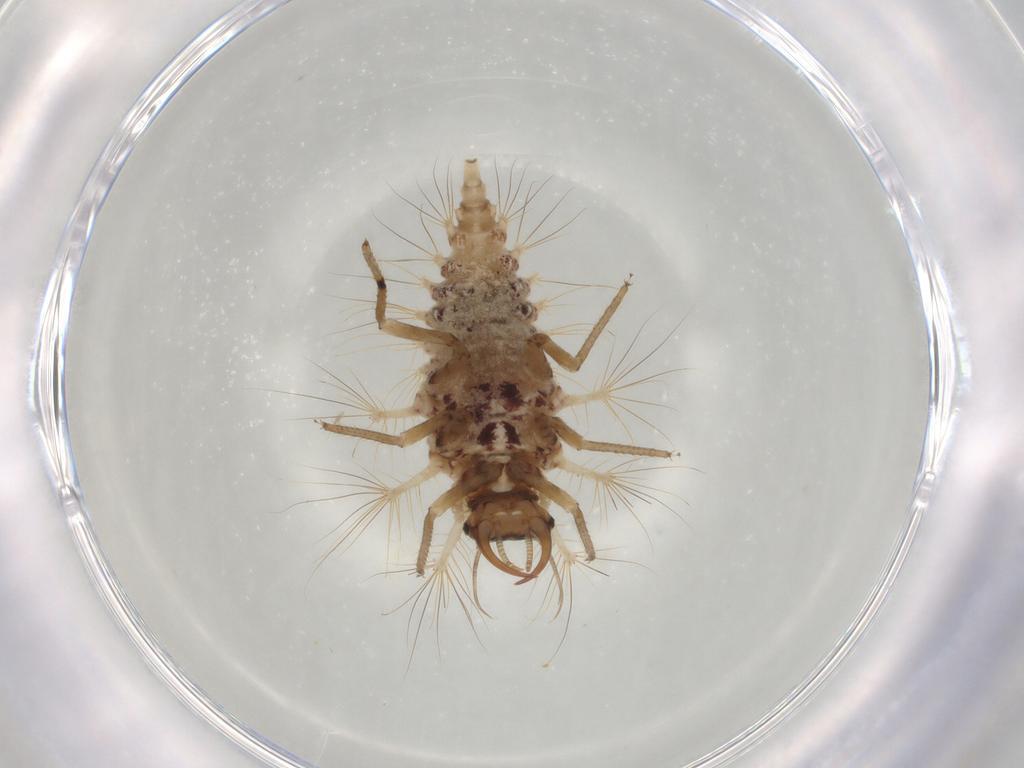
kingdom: Animalia
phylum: Arthropoda
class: Insecta
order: Neuroptera
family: Chrysopidae
